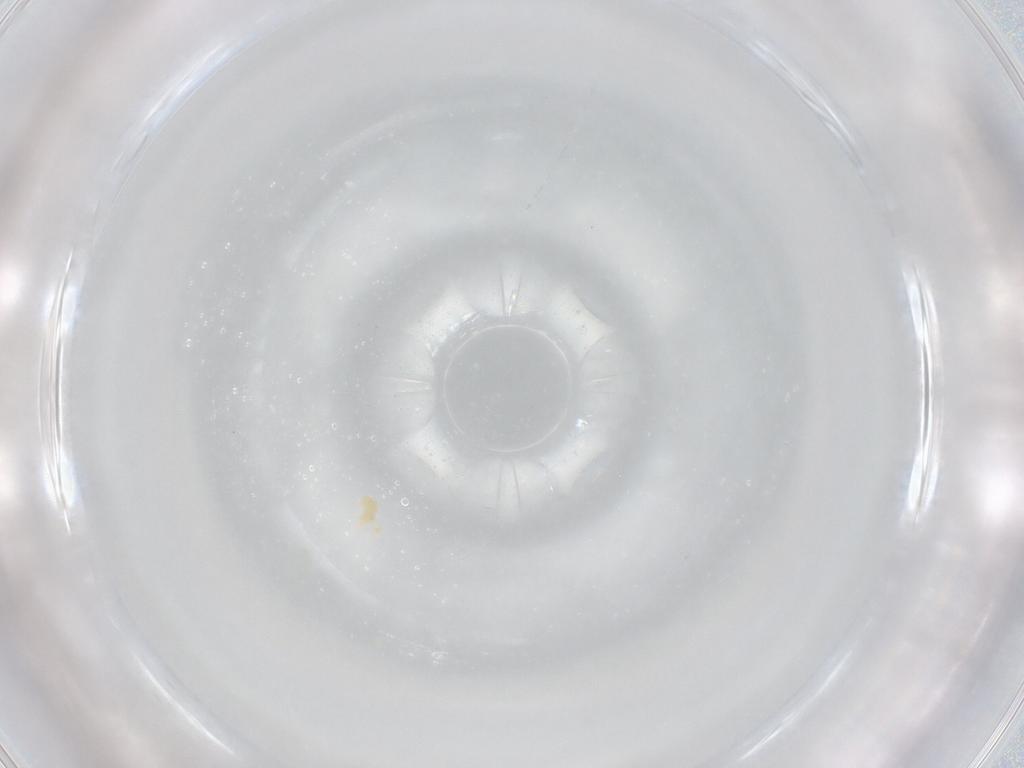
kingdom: Animalia
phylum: Arthropoda
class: Arachnida
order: Trombidiformes
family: Eupodidae
